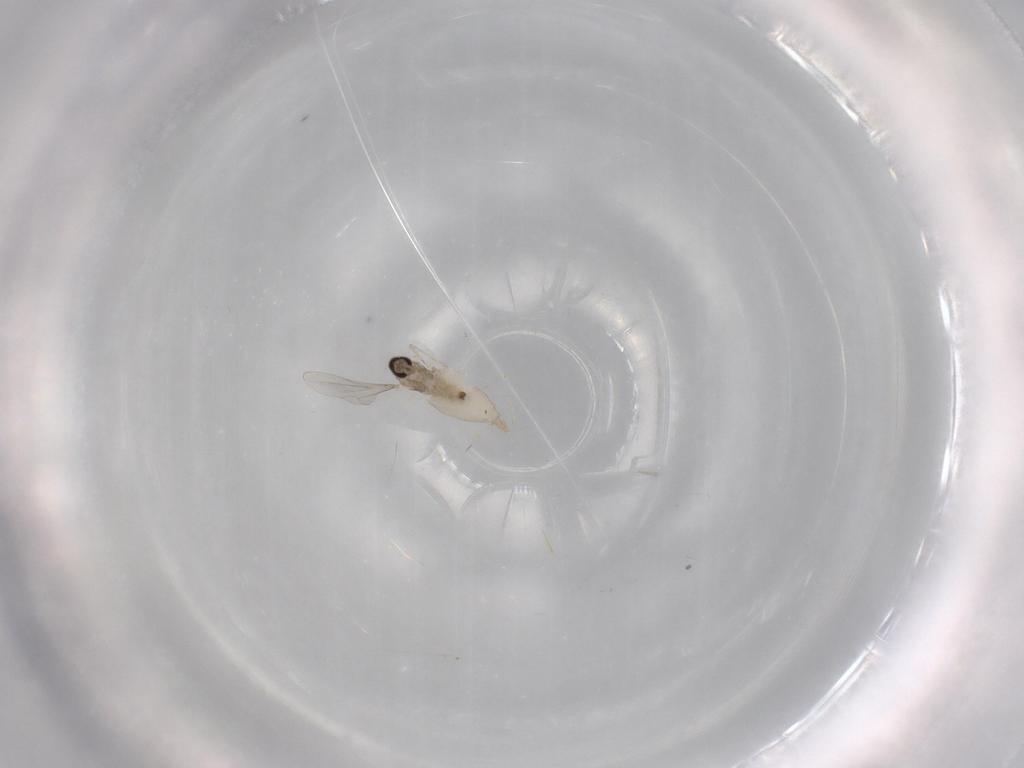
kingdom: Animalia
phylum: Arthropoda
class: Insecta
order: Diptera
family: Cecidomyiidae
